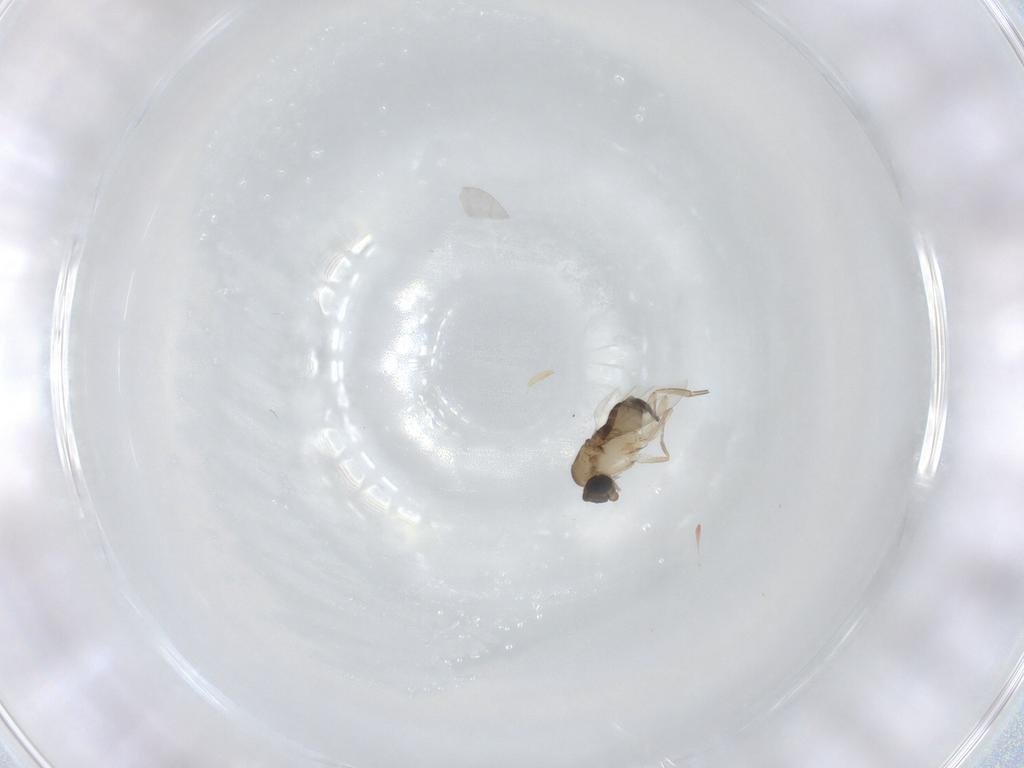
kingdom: Animalia
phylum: Arthropoda
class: Insecta
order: Diptera
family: Phoridae
